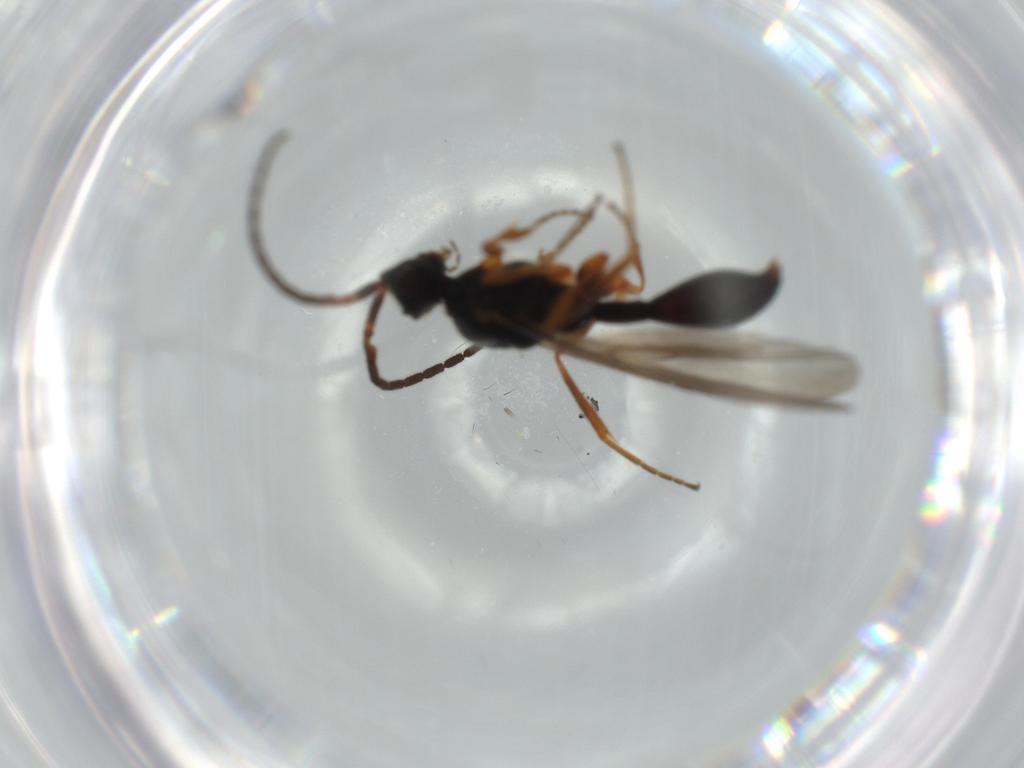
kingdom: Animalia
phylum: Arthropoda
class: Insecta
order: Hymenoptera
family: Diapriidae
